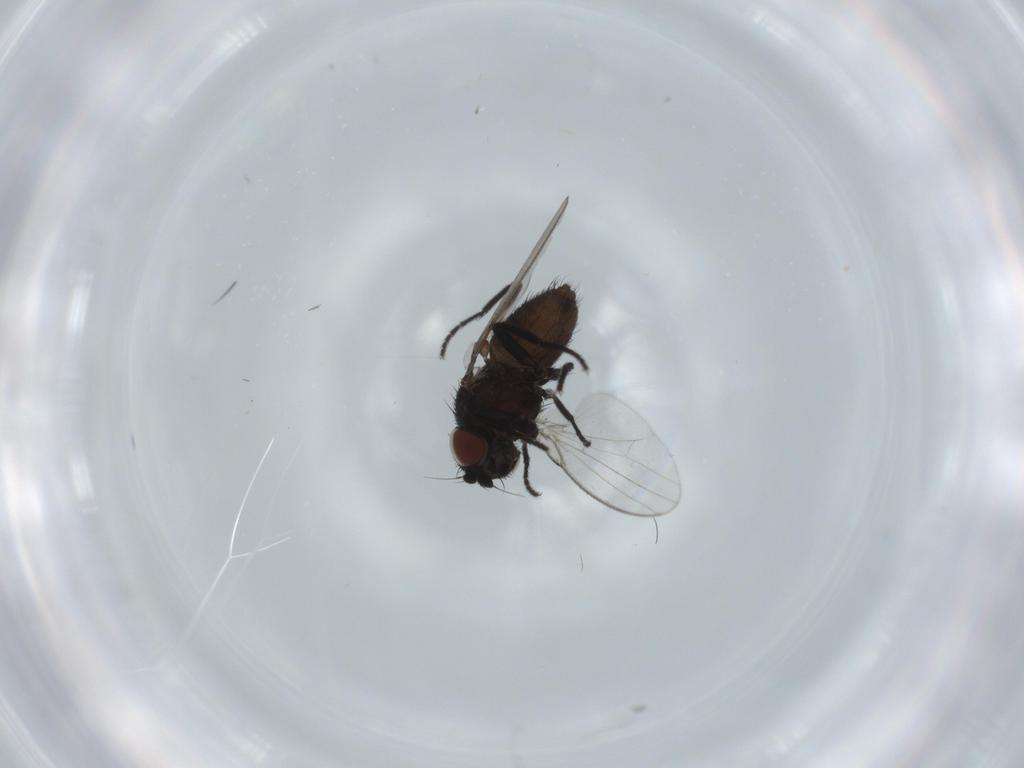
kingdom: Animalia
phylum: Arthropoda
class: Insecta
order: Diptera
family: Milichiidae
